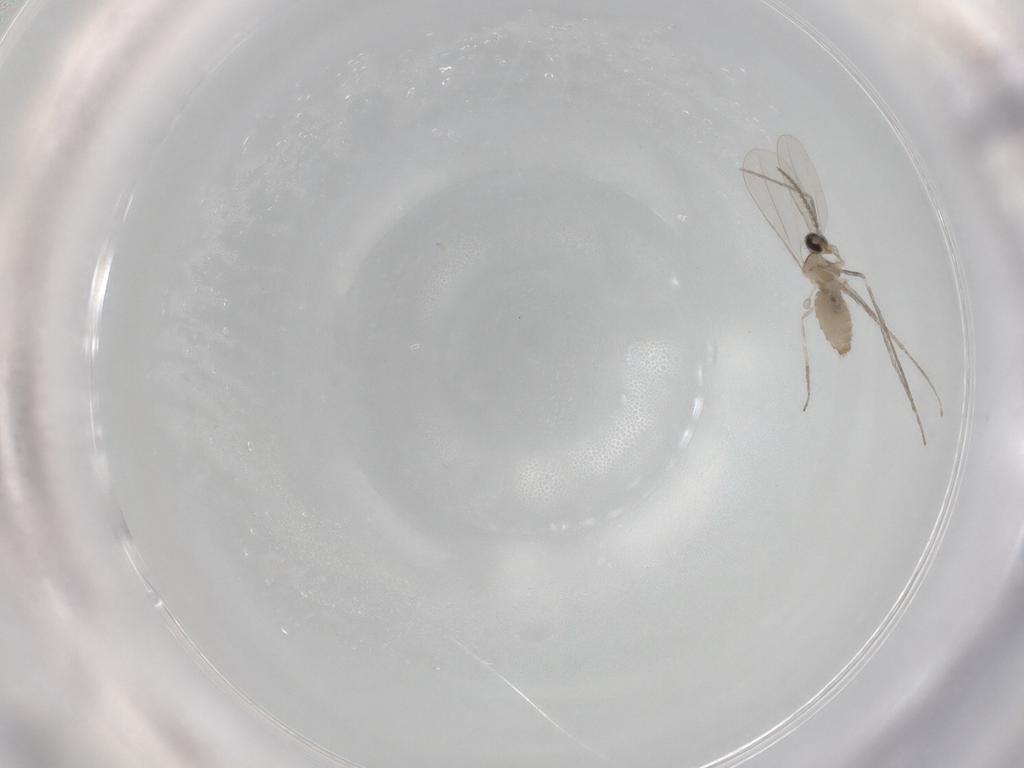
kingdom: Animalia
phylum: Arthropoda
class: Insecta
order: Diptera
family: Cecidomyiidae
